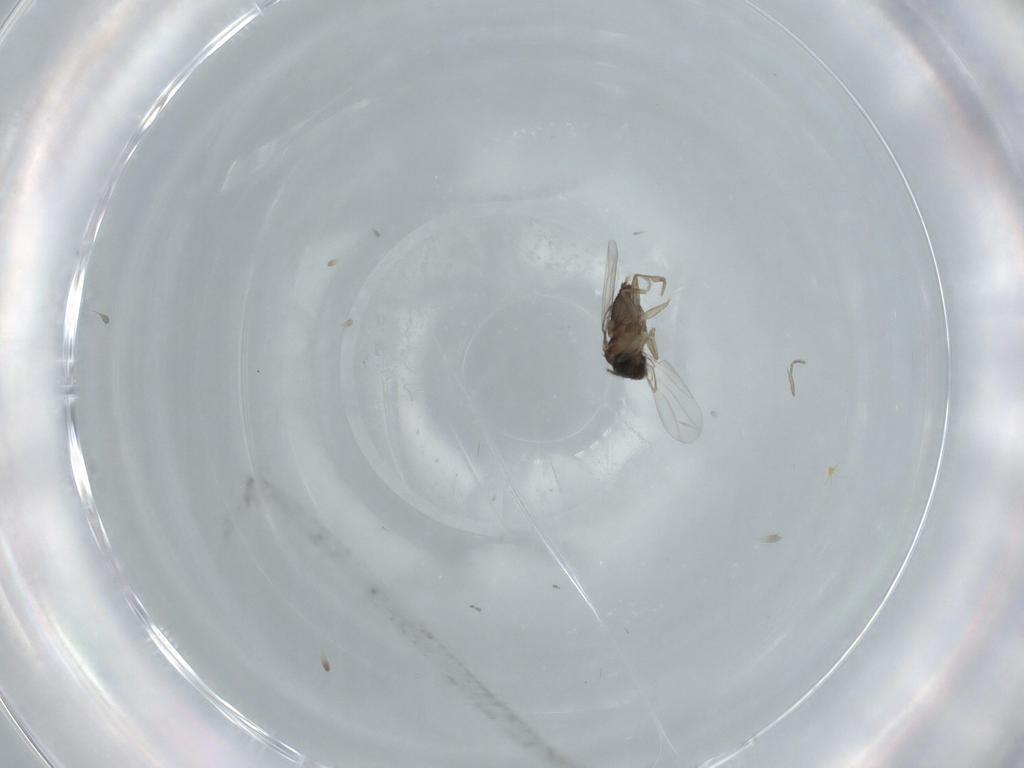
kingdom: Animalia
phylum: Arthropoda
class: Insecta
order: Diptera
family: Phoridae
